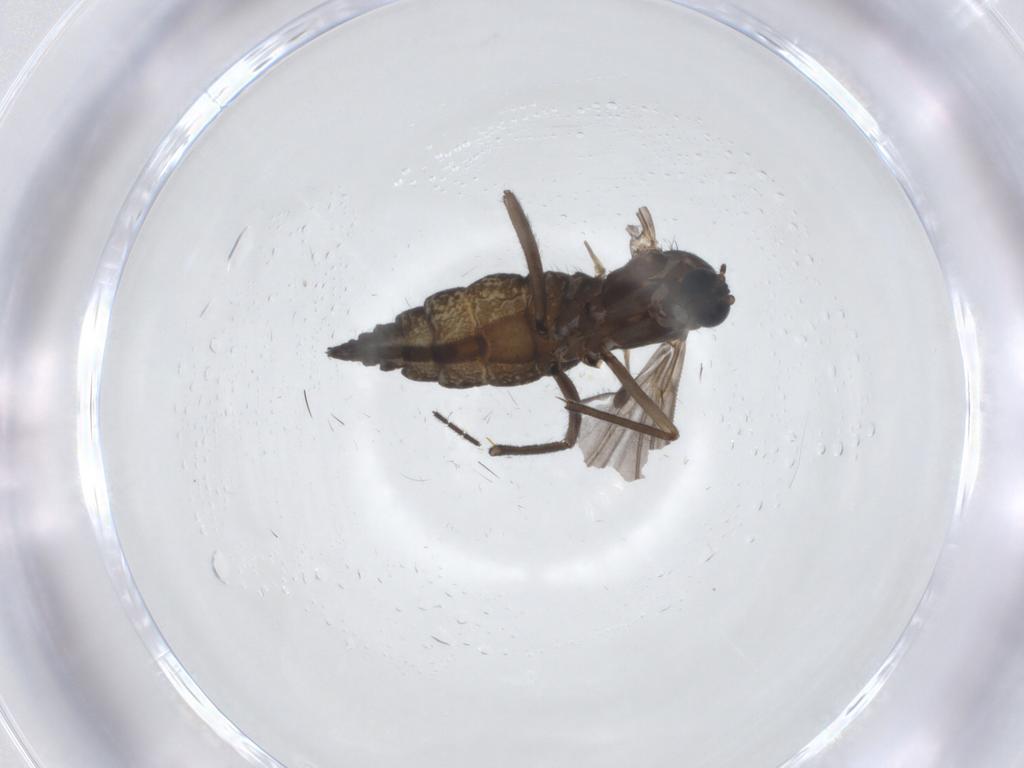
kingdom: Animalia
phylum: Arthropoda
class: Insecta
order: Diptera
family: Sciaridae
